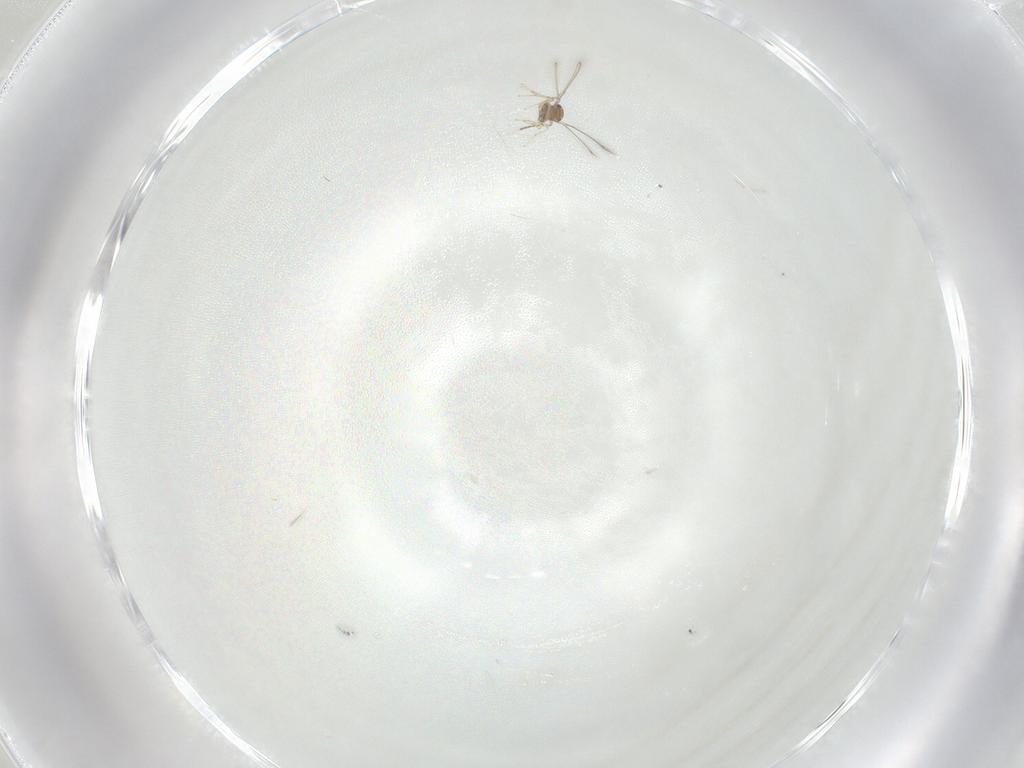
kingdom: Animalia
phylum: Arthropoda
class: Insecta
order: Hymenoptera
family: Mymaridae
